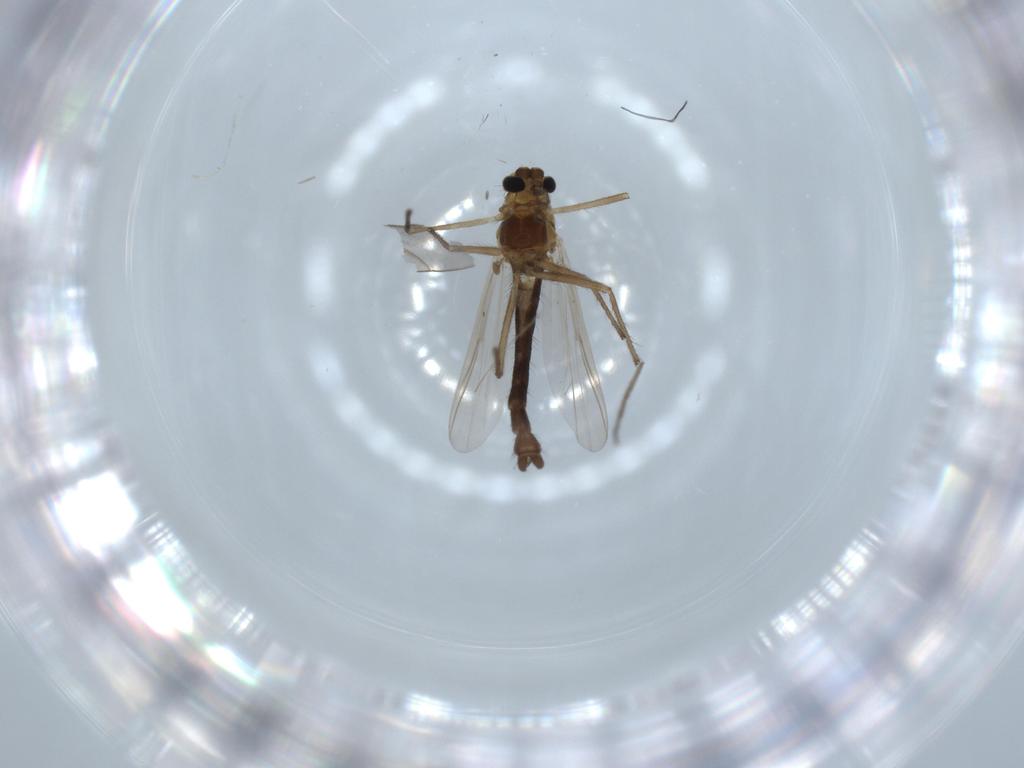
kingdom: Animalia
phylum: Arthropoda
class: Insecta
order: Diptera
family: Chironomidae
